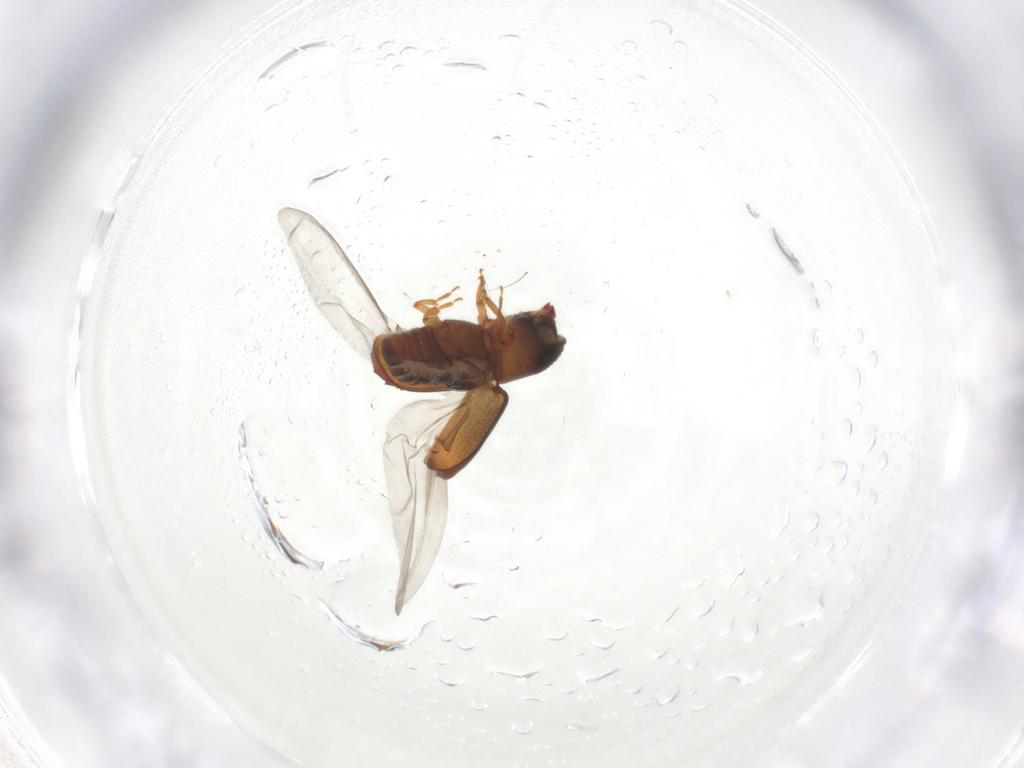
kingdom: Animalia
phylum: Arthropoda
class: Insecta
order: Coleoptera
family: Curculionidae
